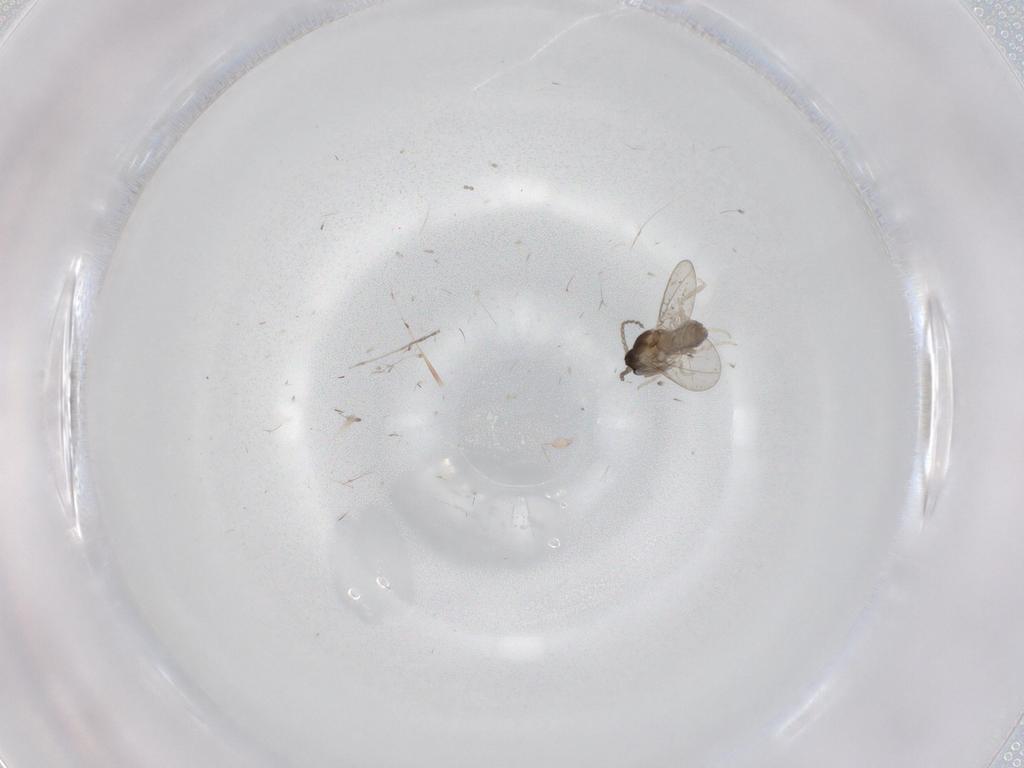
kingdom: Animalia
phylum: Arthropoda
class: Insecta
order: Diptera
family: Cecidomyiidae
